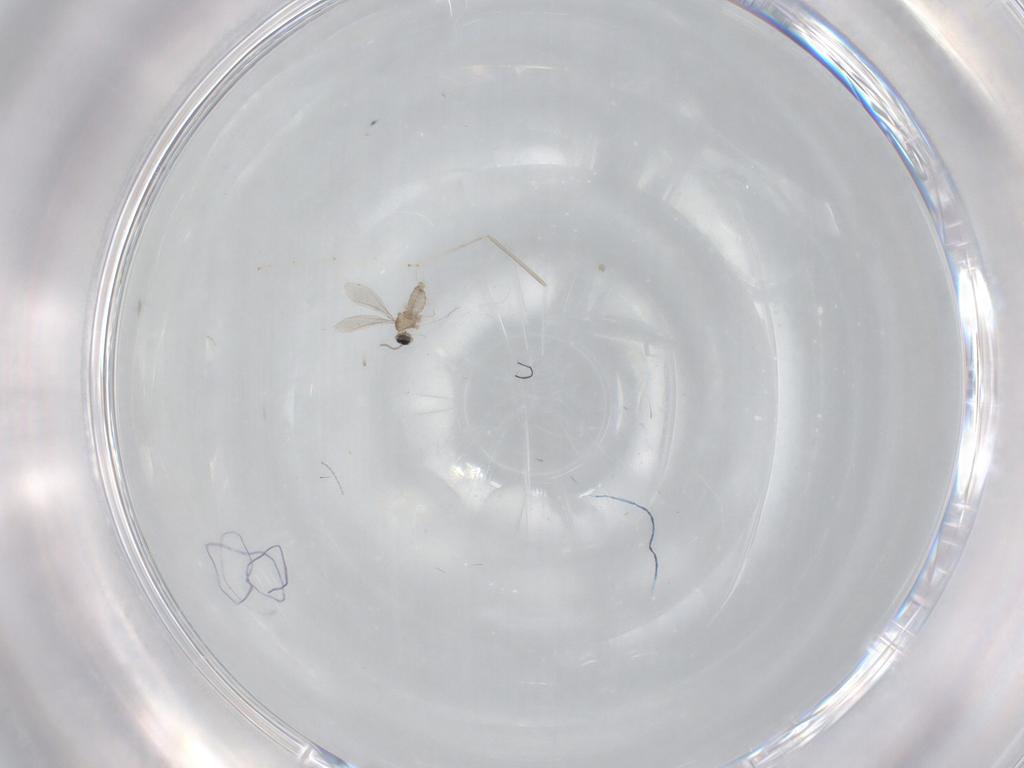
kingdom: Animalia
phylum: Arthropoda
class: Insecta
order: Diptera
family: Cecidomyiidae
